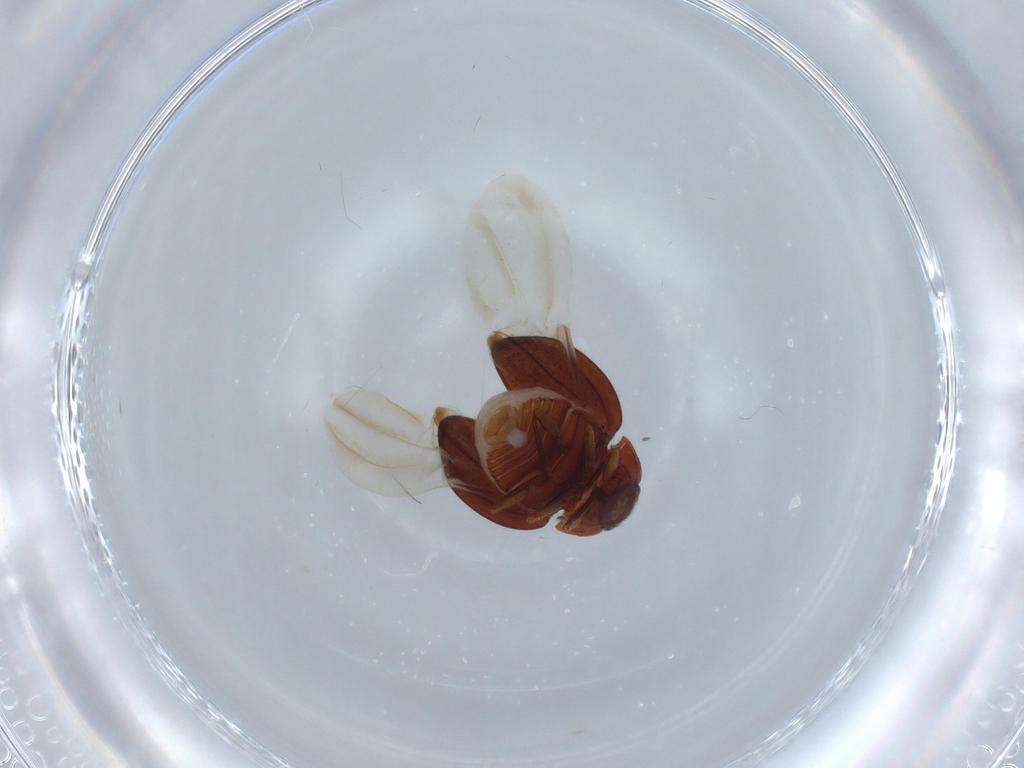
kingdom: Animalia
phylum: Arthropoda
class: Insecta
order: Coleoptera
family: Anamorphidae
